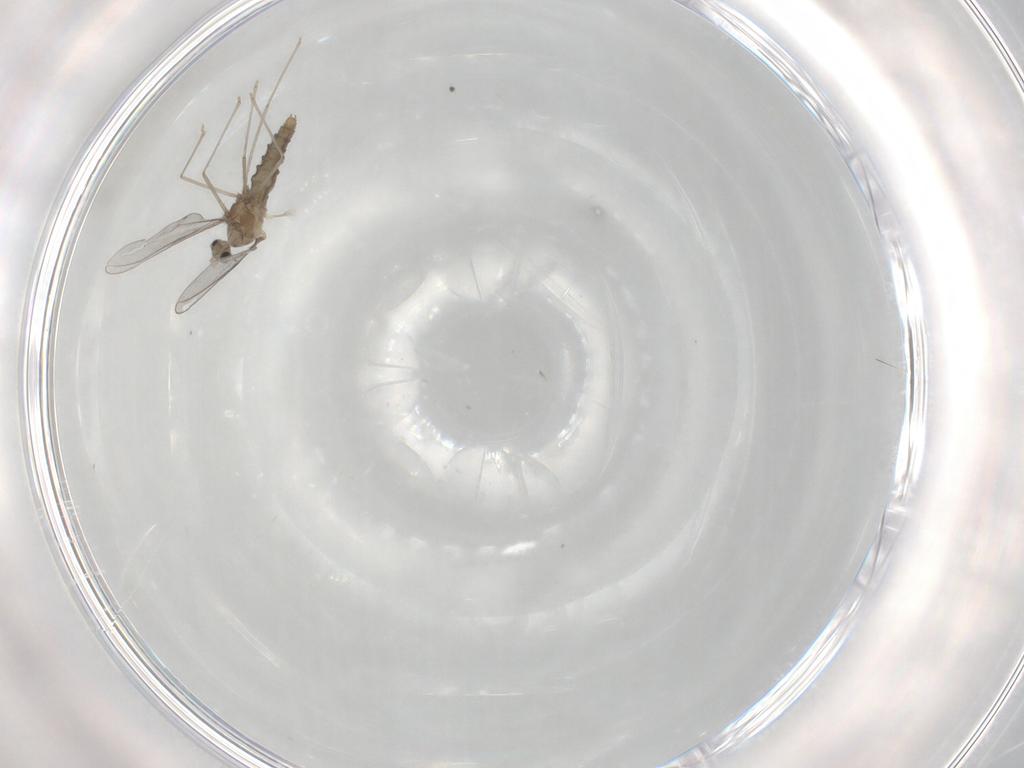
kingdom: Animalia
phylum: Arthropoda
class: Insecta
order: Diptera
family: Cecidomyiidae
